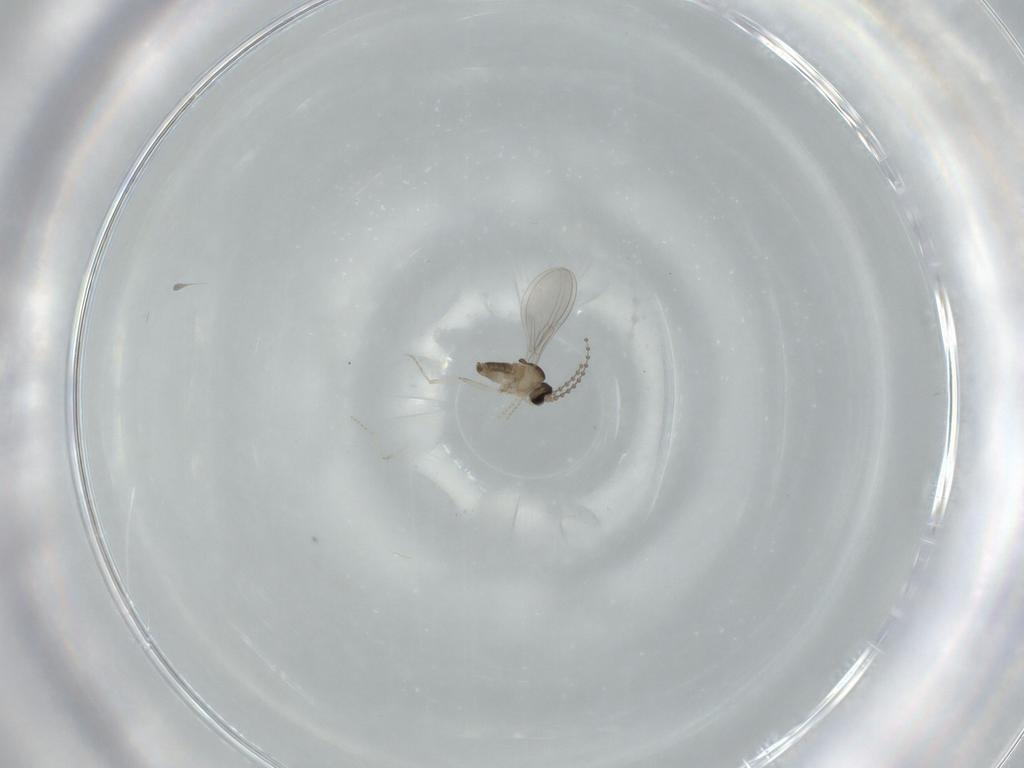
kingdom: Animalia
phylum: Arthropoda
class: Insecta
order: Diptera
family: Cecidomyiidae
